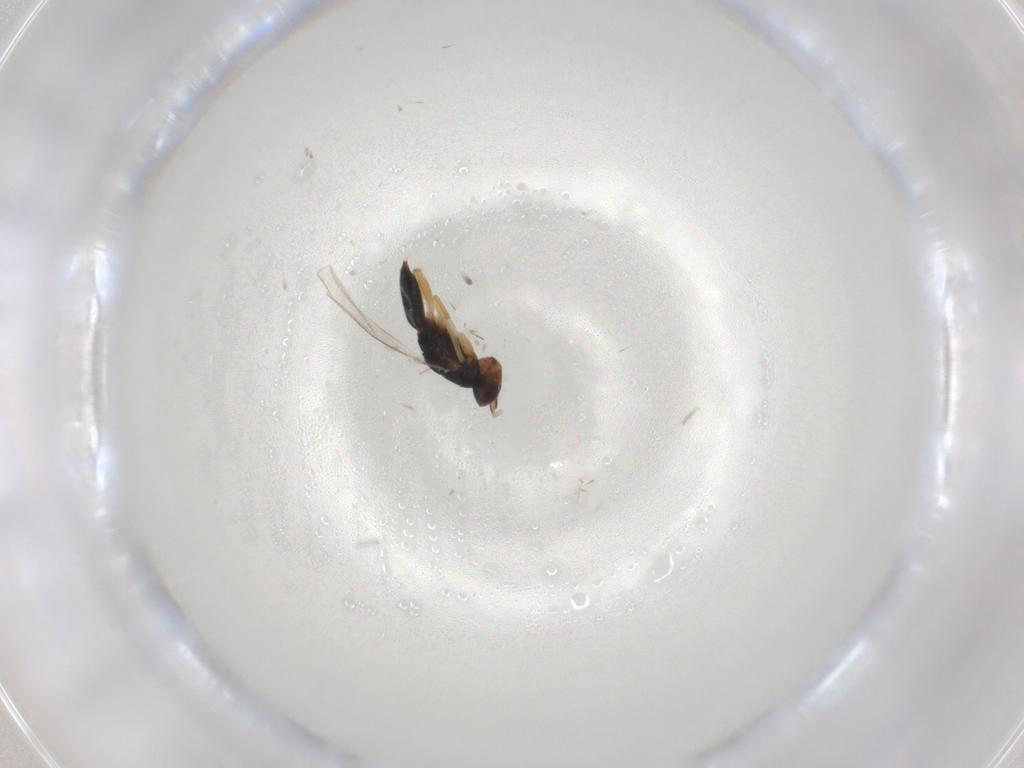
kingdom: Animalia
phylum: Arthropoda
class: Insecta
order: Hymenoptera
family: Eulophidae
